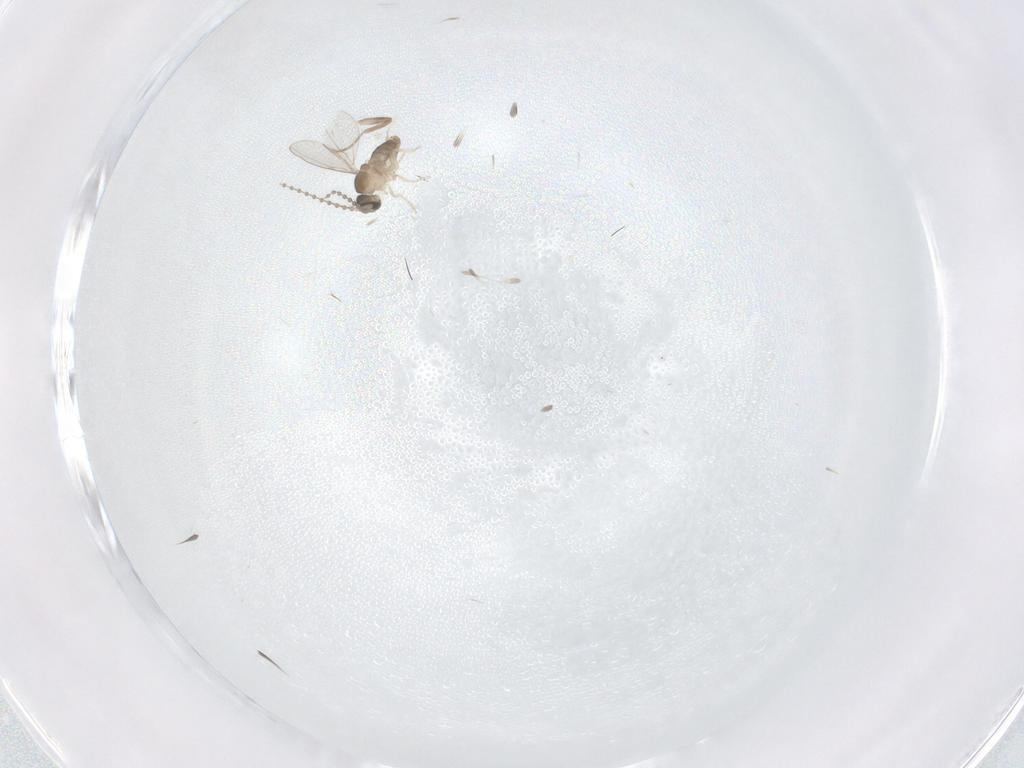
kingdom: Animalia
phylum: Arthropoda
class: Insecta
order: Diptera
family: Cecidomyiidae
